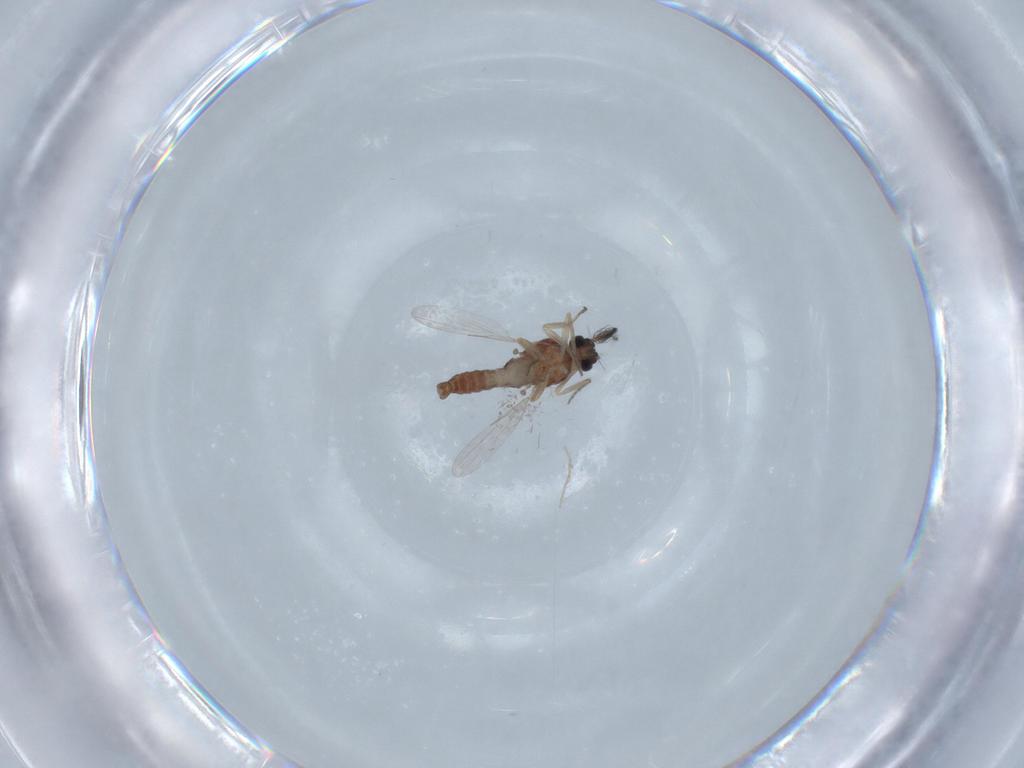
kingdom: Animalia
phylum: Arthropoda
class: Insecta
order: Diptera
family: Ceratopogonidae
